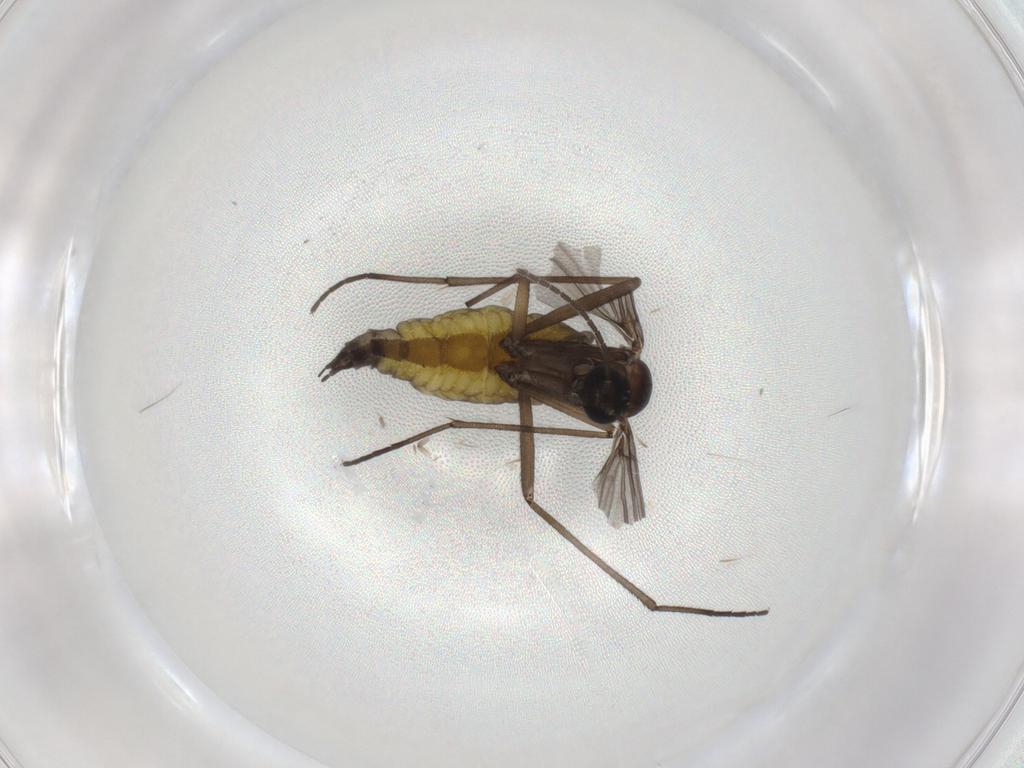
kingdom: Animalia
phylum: Arthropoda
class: Insecta
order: Diptera
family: Sciaridae
